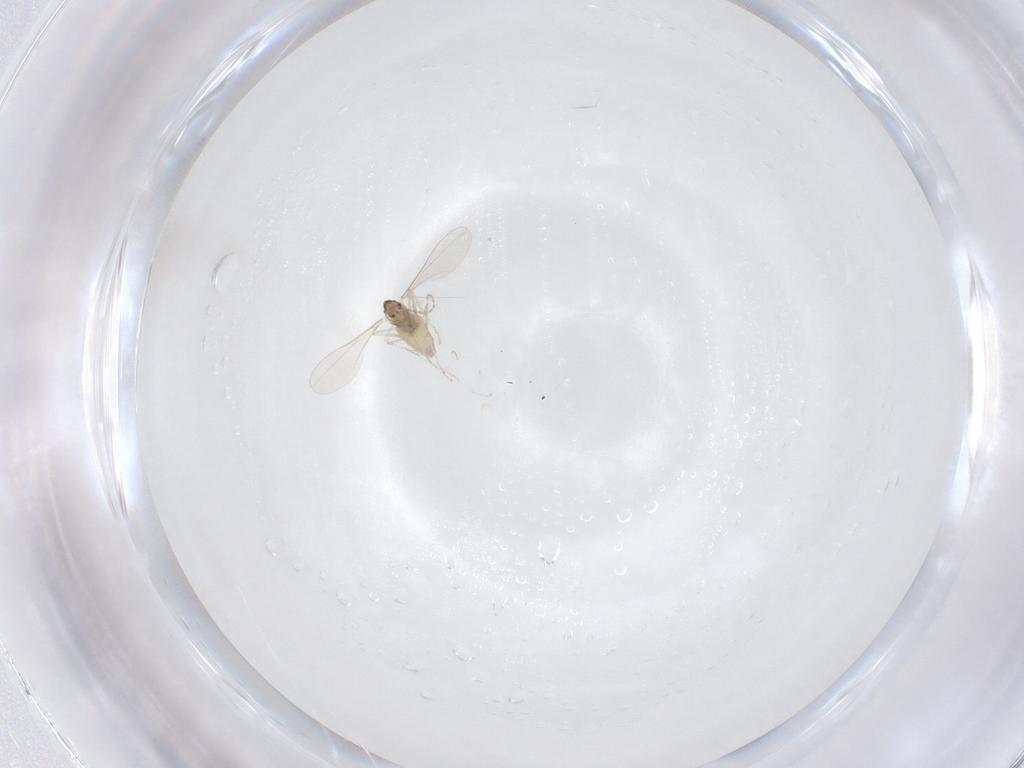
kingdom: Animalia
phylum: Arthropoda
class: Insecta
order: Diptera
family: Cecidomyiidae
